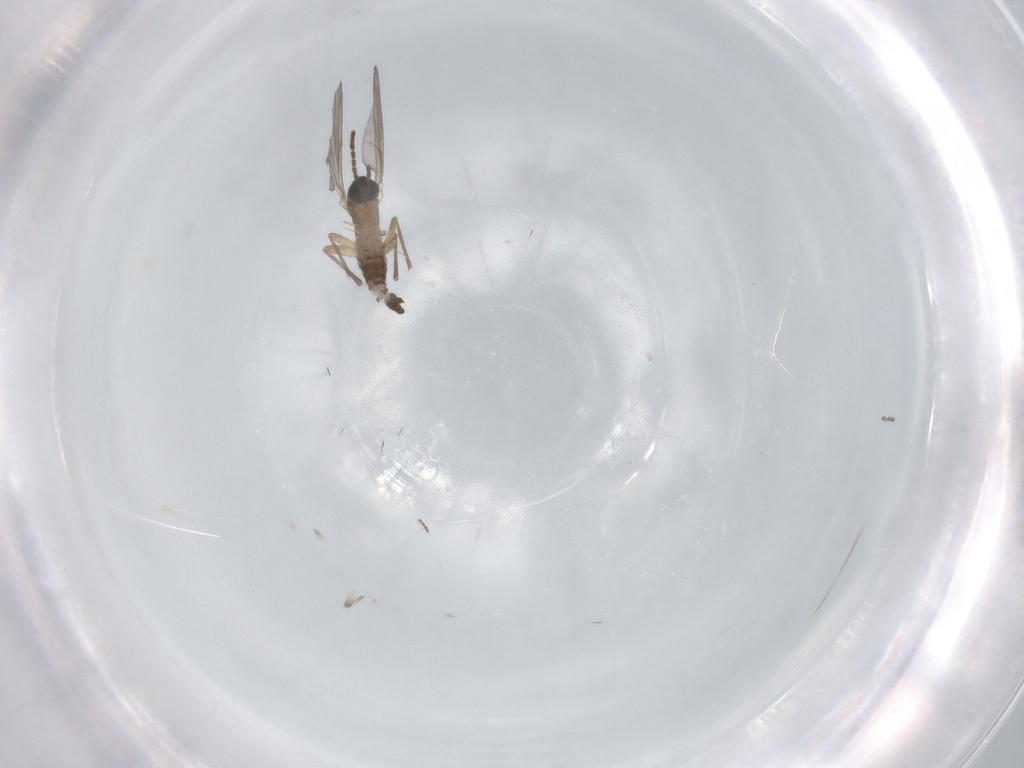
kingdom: Animalia
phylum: Arthropoda
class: Insecta
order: Diptera
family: Sciaridae
